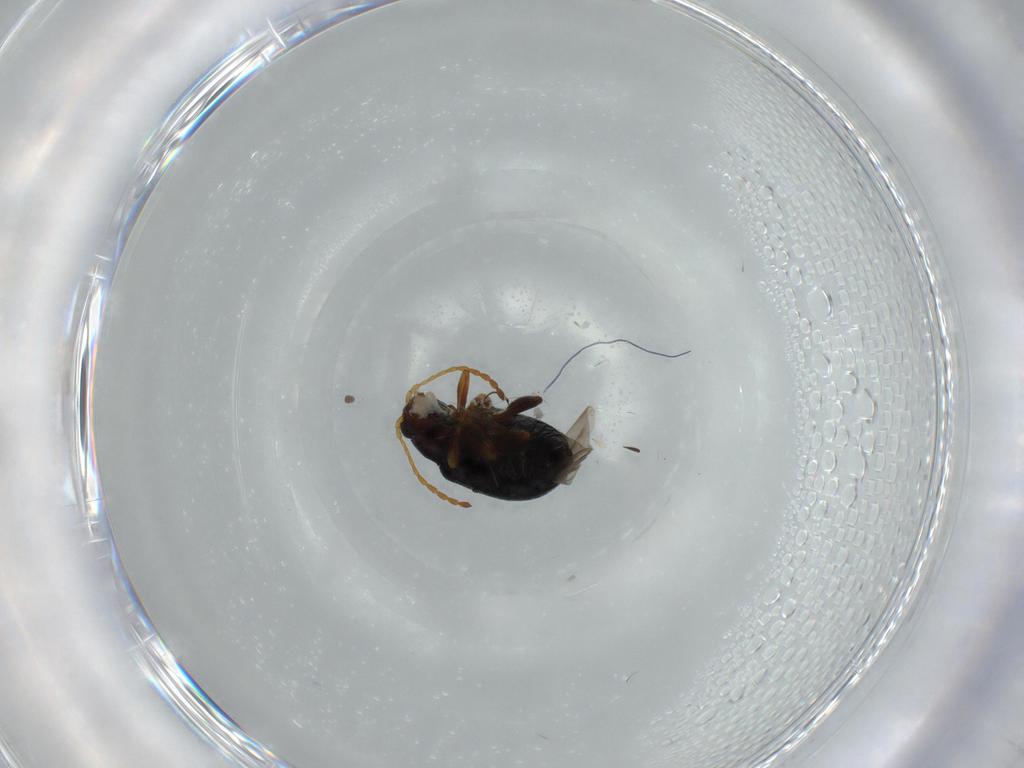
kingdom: Animalia
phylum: Arthropoda
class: Insecta
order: Coleoptera
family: Chrysomelidae
